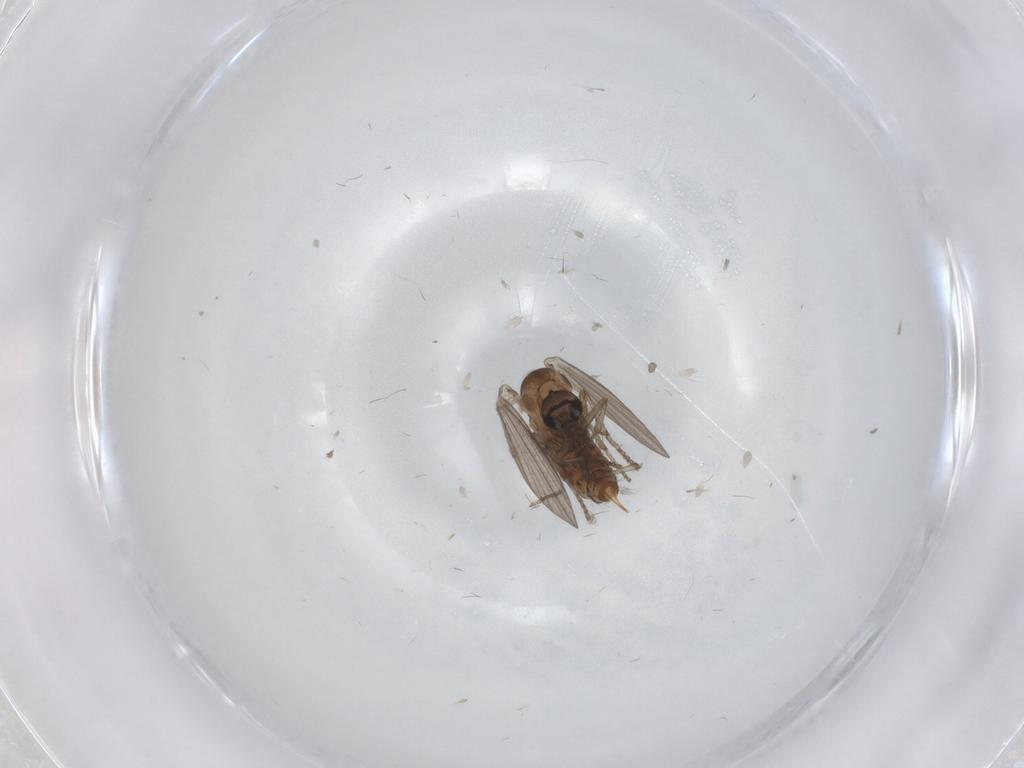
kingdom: Animalia
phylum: Arthropoda
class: Insecta
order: Diptera
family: Psychodidae
